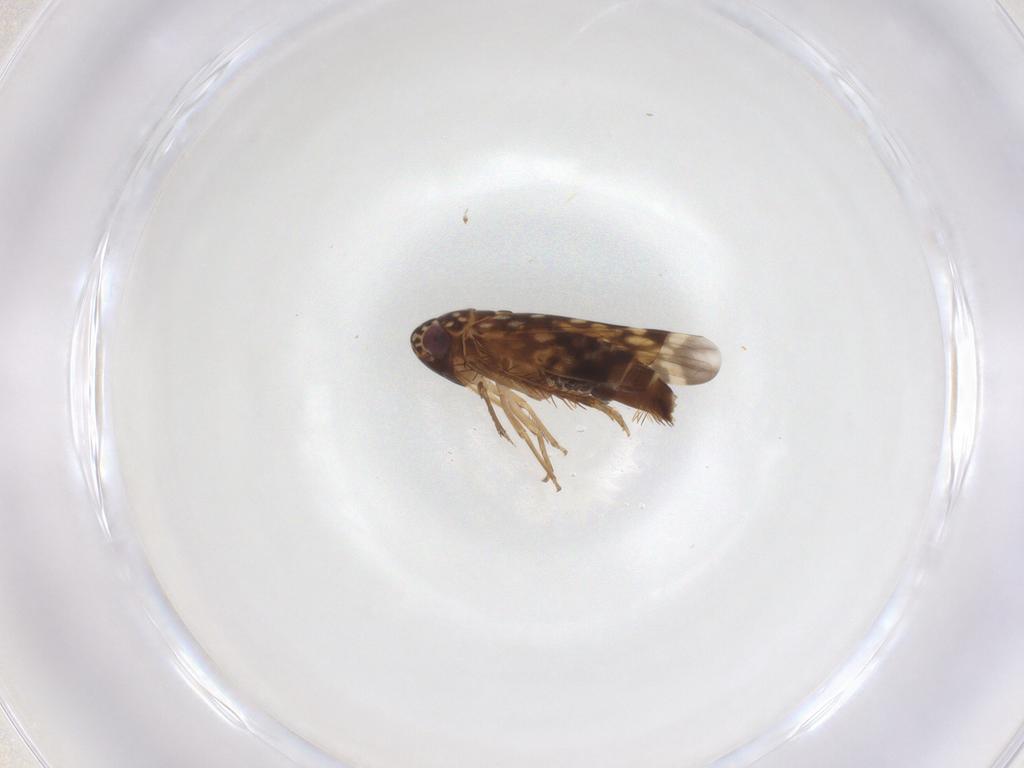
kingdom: Animalia
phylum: Arthropoda
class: Insecta
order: Hemiptera
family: Cicadellidae
